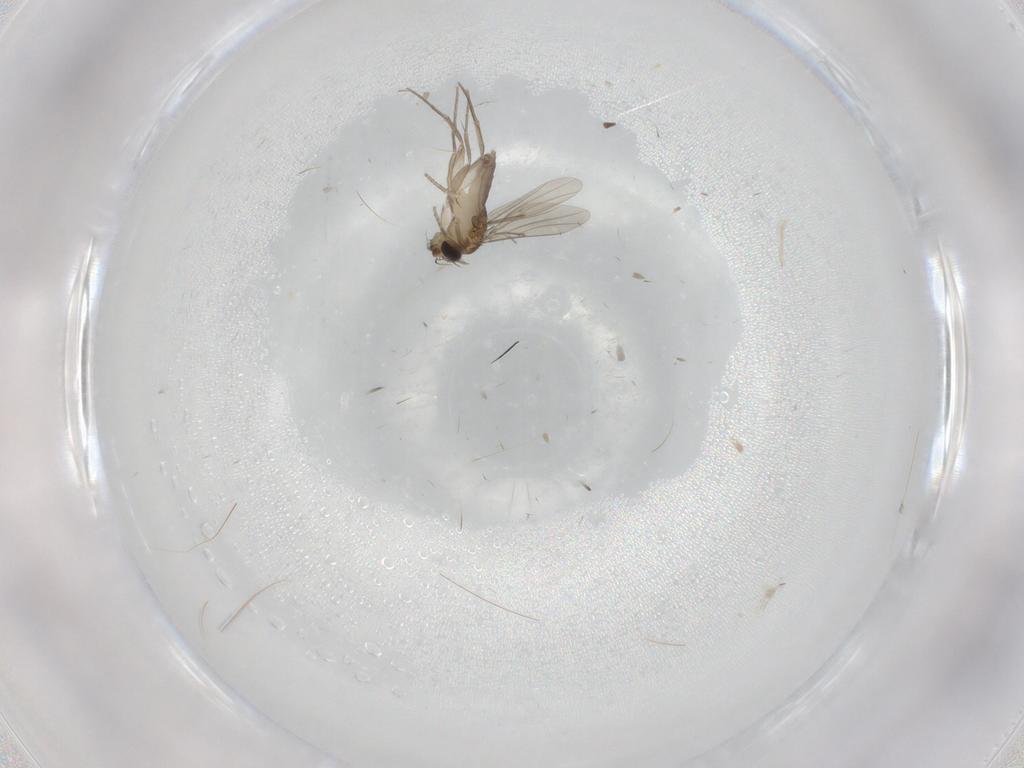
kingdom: Animalia
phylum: Arthropoda
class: Insecta
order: Diptera
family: Phoridae
